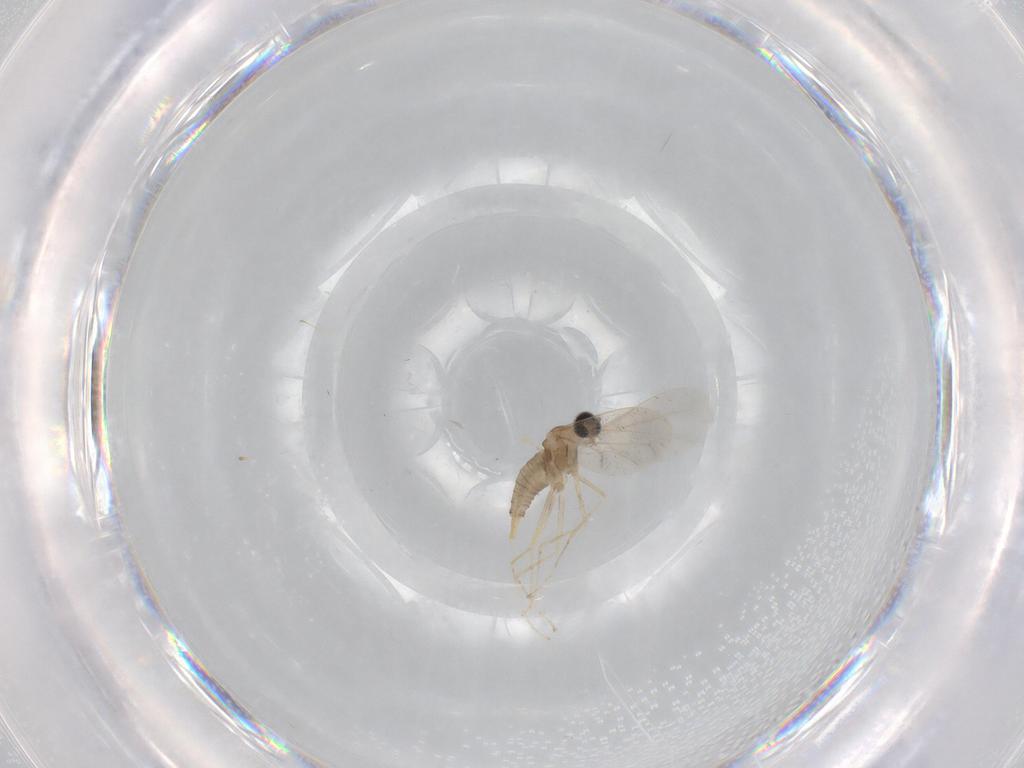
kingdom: Animalia
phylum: Arthropoda
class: Insecta
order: Diptera
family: Cecidomyiidae
